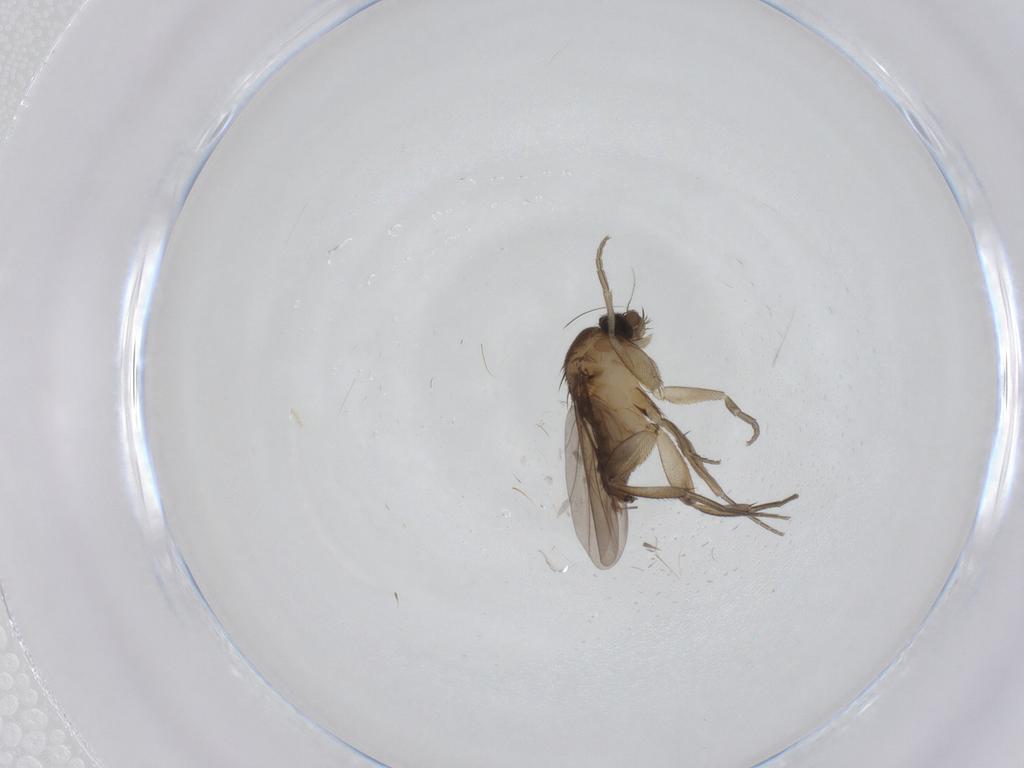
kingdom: Animalia
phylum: Arthropoda
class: Insecta
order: Diptera
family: Phoridae
